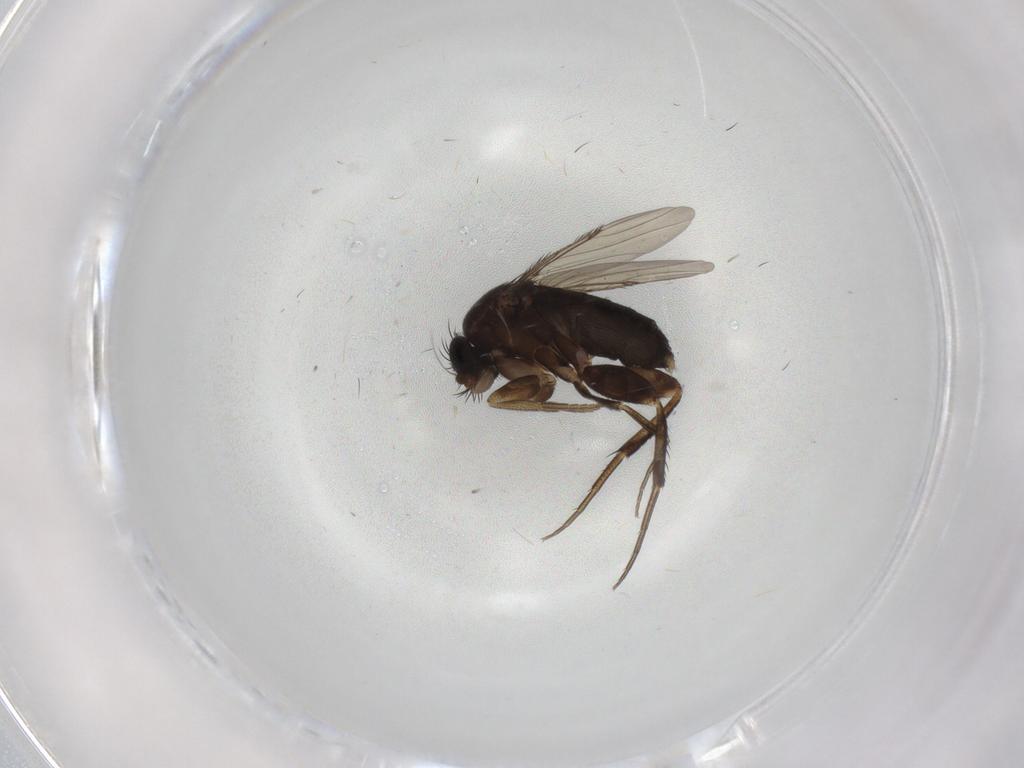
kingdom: Animalia
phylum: Arthropoda
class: Insecta
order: Diptera
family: Phoridae
